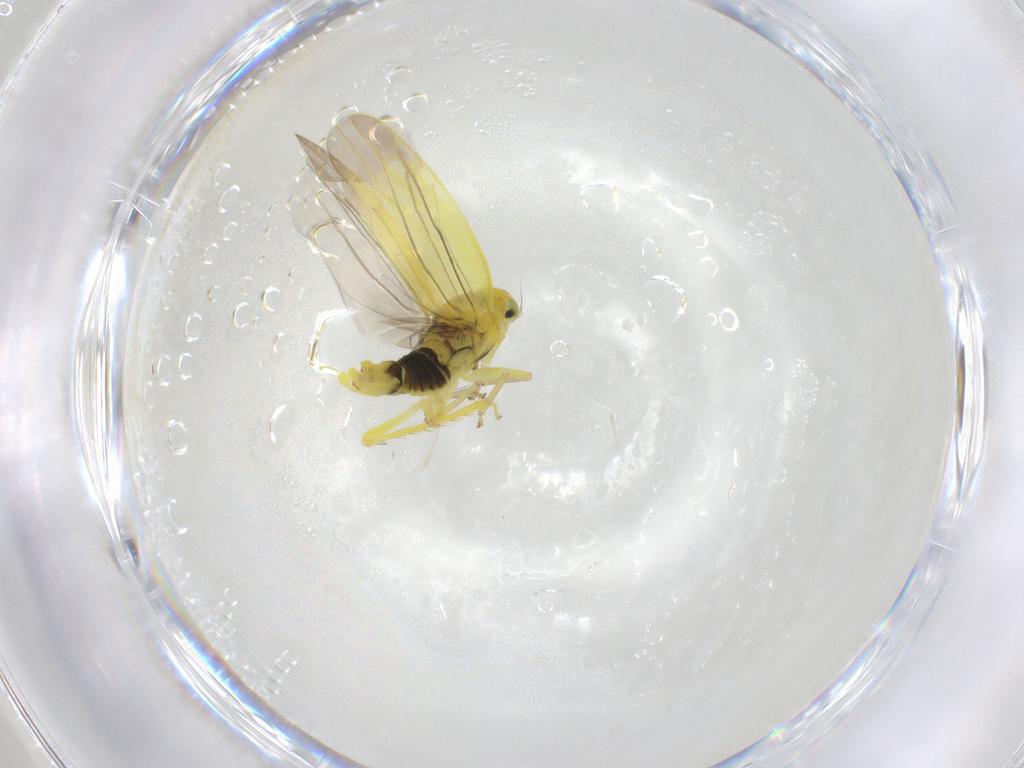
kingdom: Animalia
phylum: Arthropoda
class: Insecta
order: Hemiptera
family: Cicadellidae
